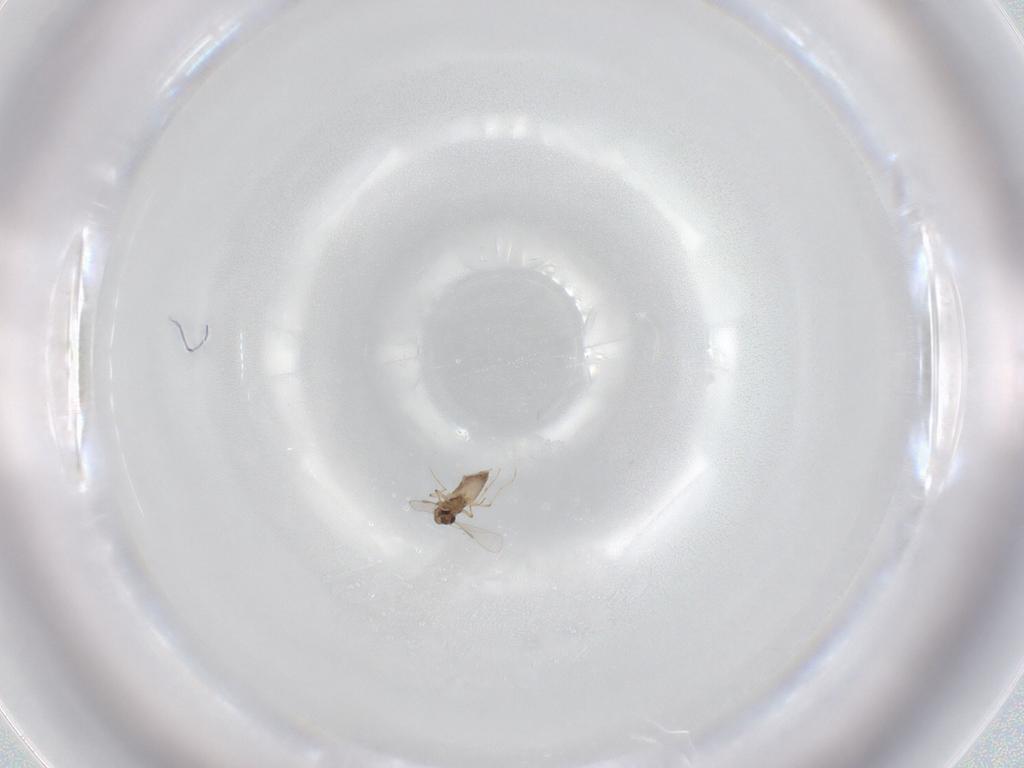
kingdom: Animalia
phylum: Arthropoda
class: Insecta
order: Diptera
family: Chironomidae
